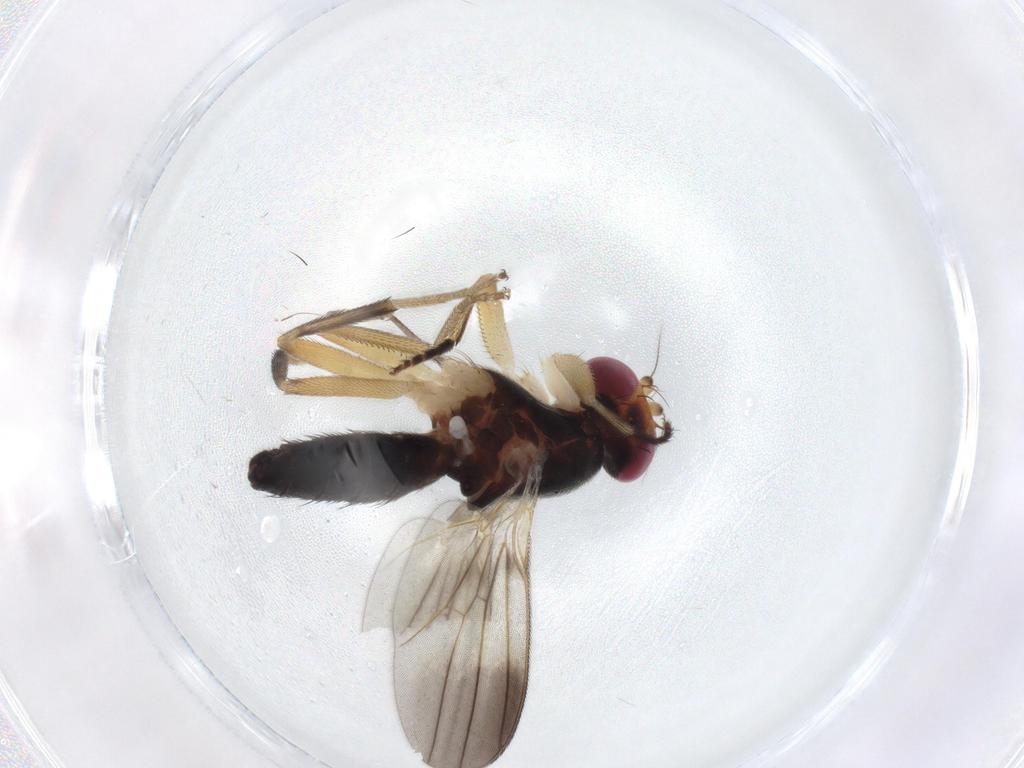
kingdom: Animalia
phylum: Arthropoda
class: Insecta
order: Diptera
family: Clusiidae
